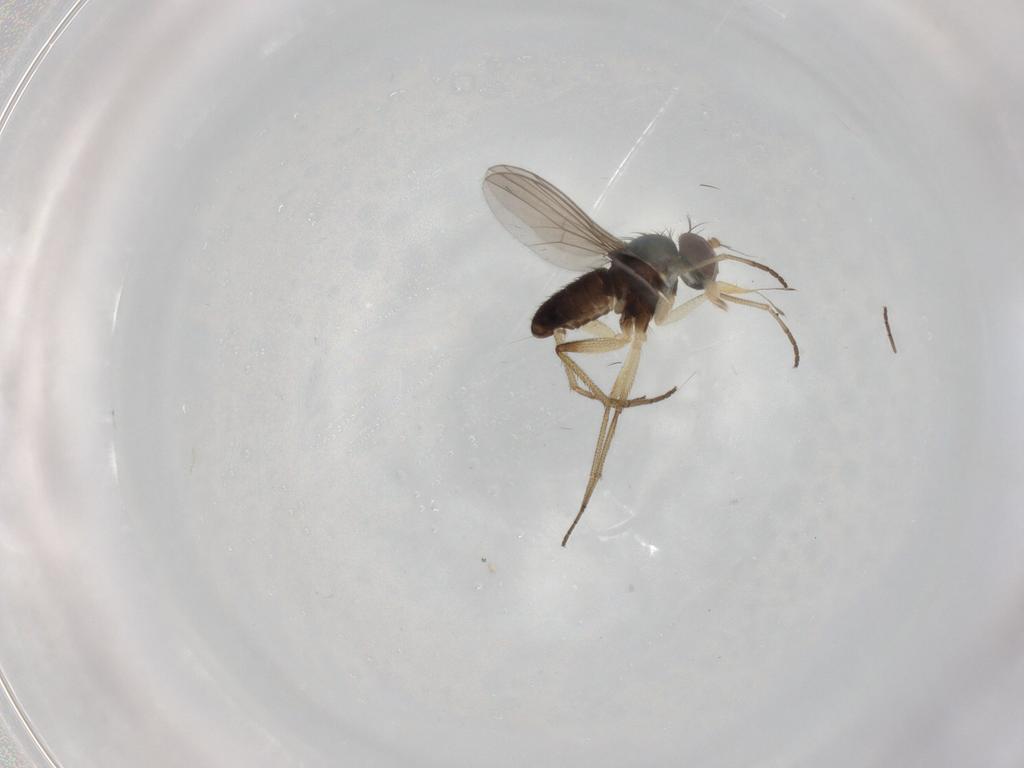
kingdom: Animalia
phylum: Arthropoda
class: Insecta
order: Diptera
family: Dolichopodidae
